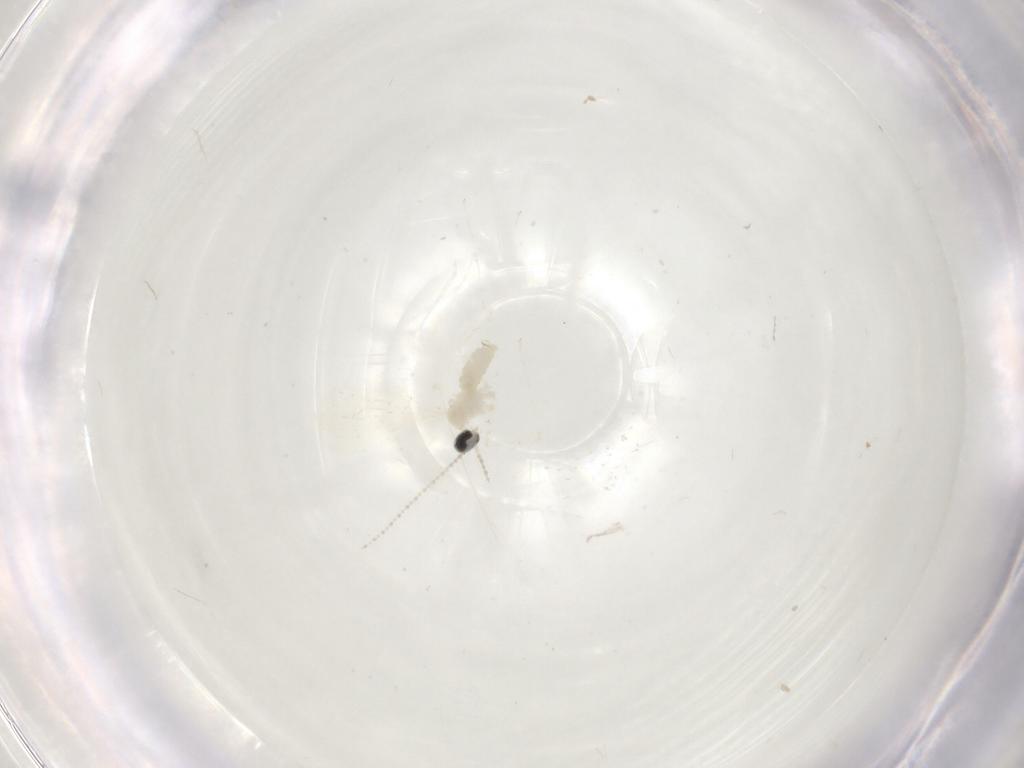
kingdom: Animalia
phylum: Arthropoda
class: Insecta
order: Diptera
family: Cecidomyiidae
